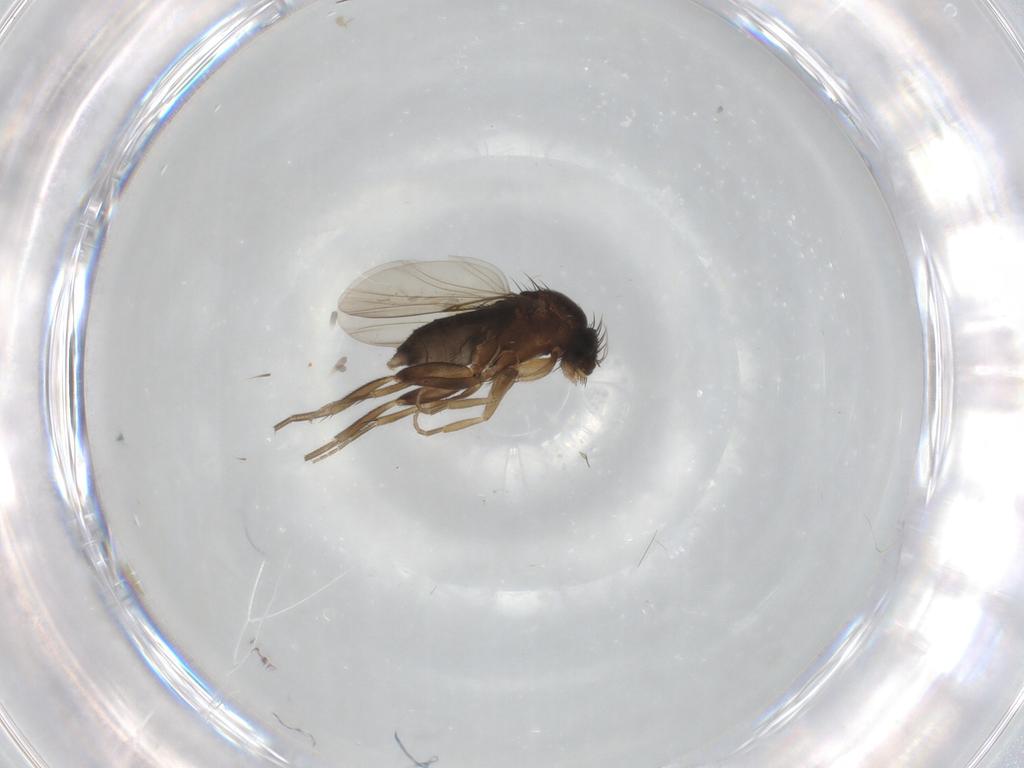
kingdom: Animalia
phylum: Arthropoda
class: Insecta
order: Diptera
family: Phoridae
